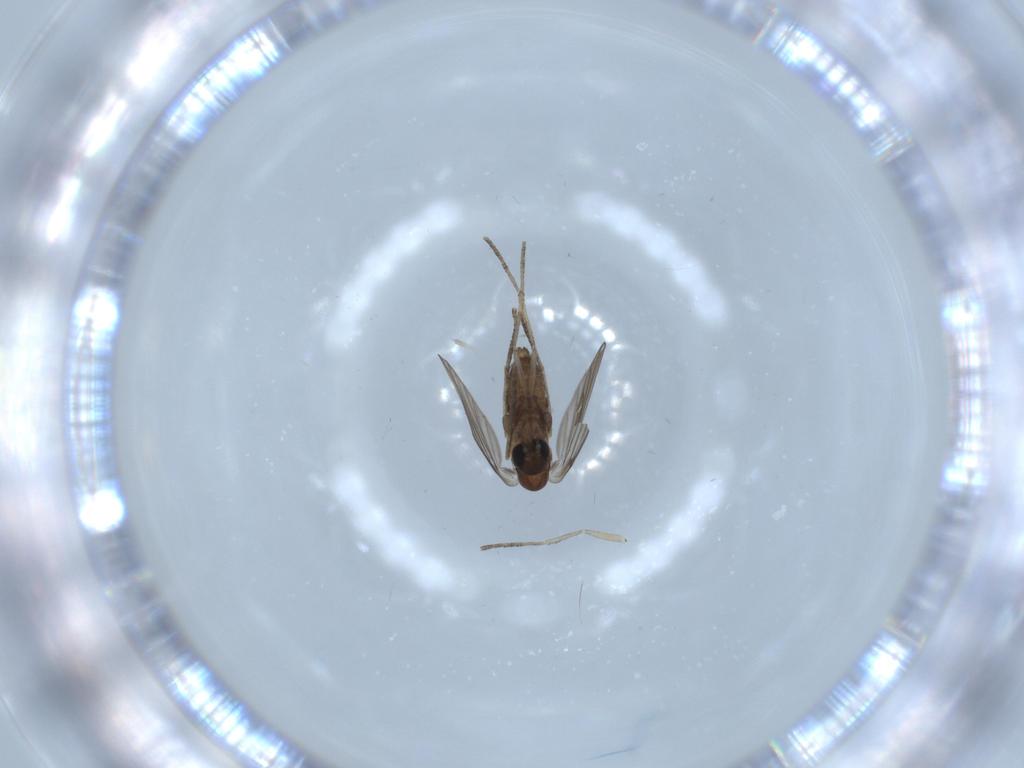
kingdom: Animalia
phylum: Arthropoda
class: Insecta
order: Diptera
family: Psychodidae
